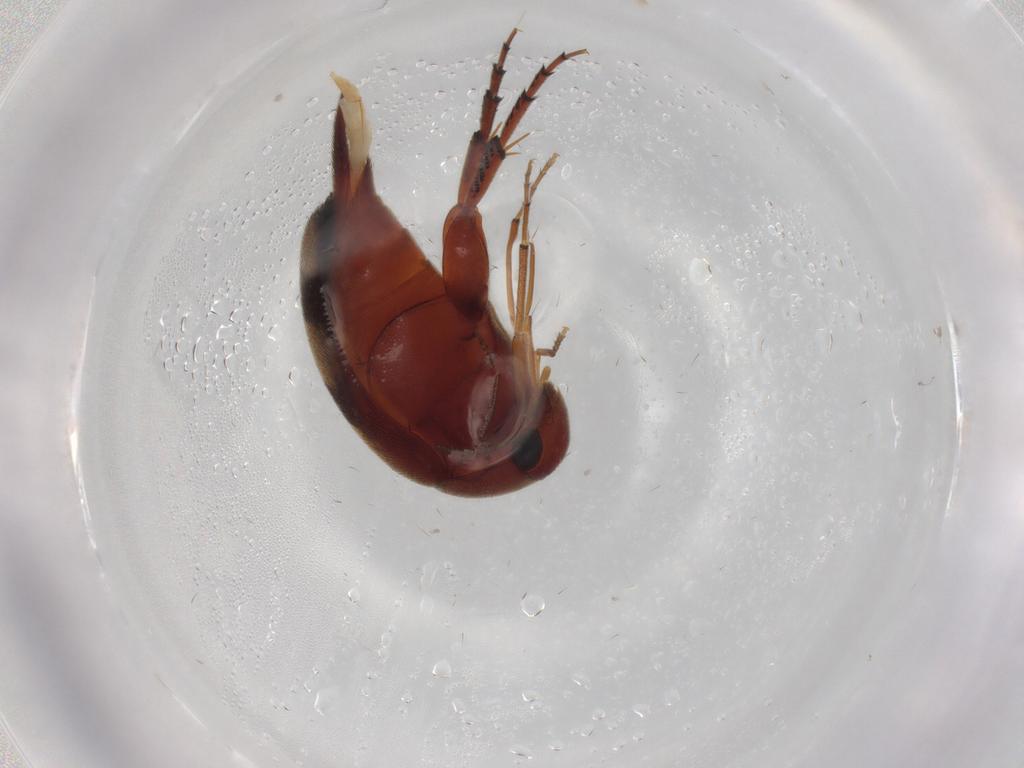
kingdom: Animalia
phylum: Arthropoda
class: Insecta
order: Coleoptera
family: Mordellidae
